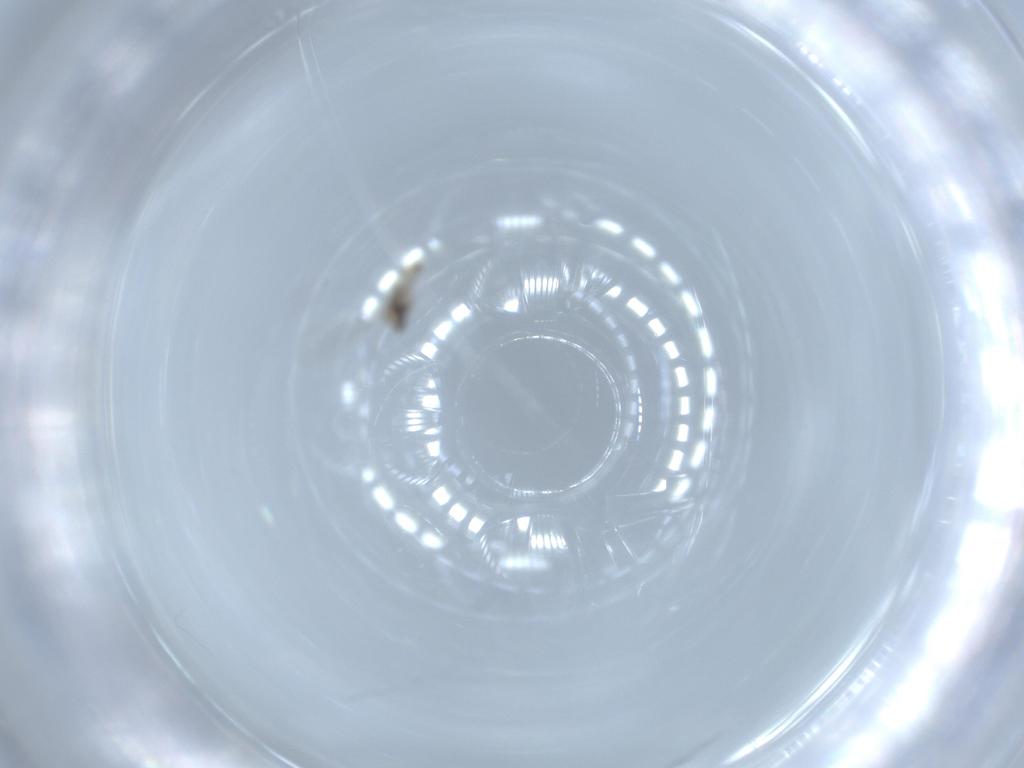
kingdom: Animalia
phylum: Arthropoda
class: Insecta
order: Diptera
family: Cecidomyiidae
